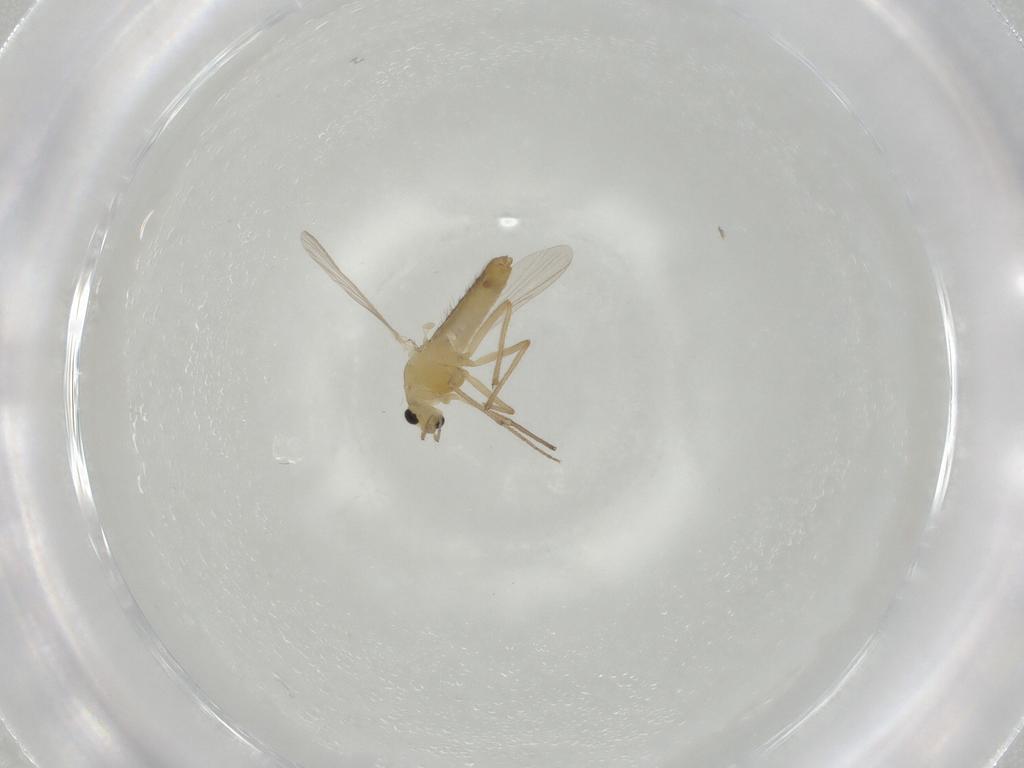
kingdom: Animalia
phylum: Arthropoda
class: Insecta
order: Diptera
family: Chironomidae
